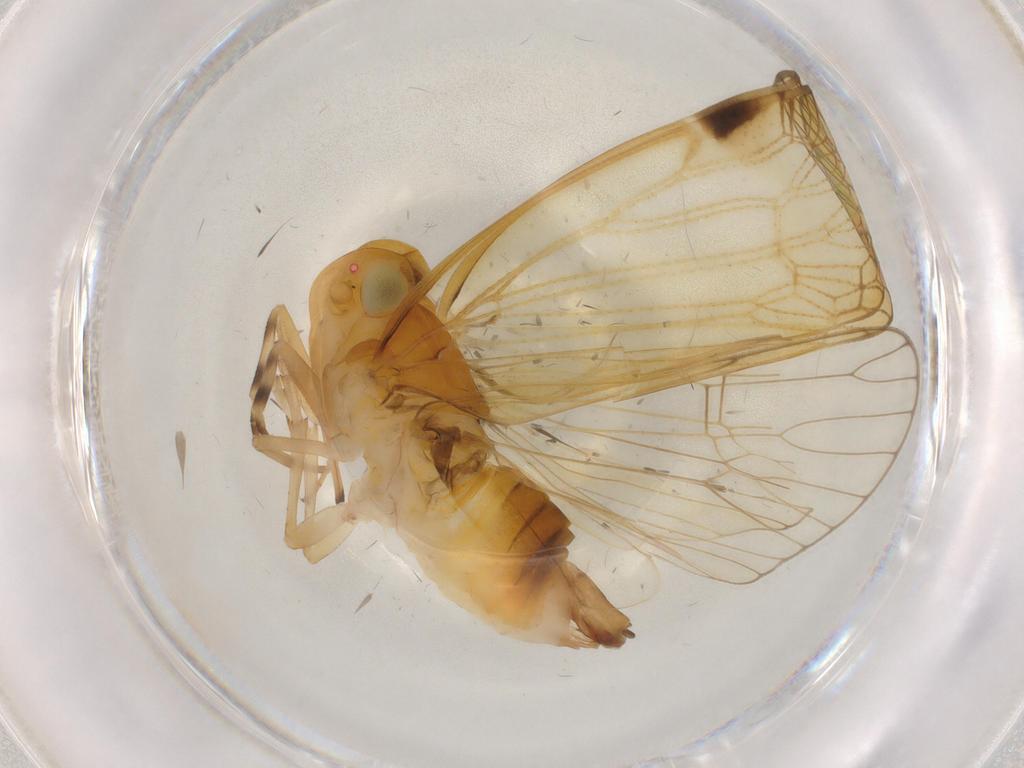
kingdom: Animalia
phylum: Arthropoda
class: Insecta
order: Hemiptera
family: Cixiidae
